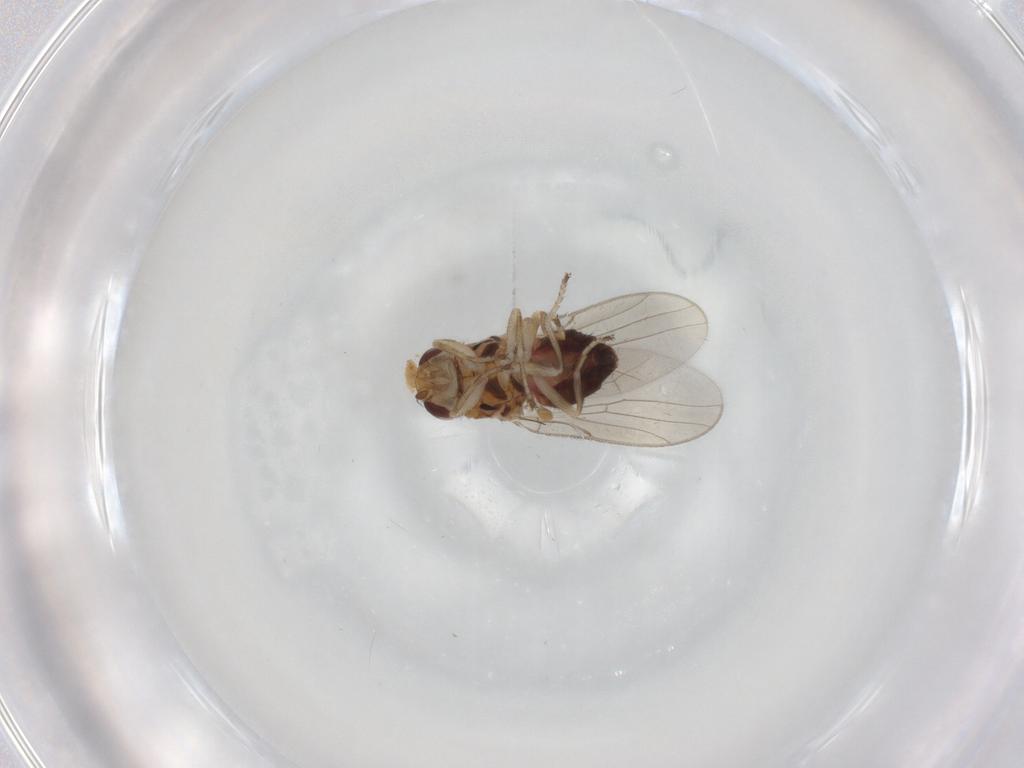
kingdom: Animalia
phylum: Arthropoda
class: Insecta
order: Diptera
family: Chloropidae
